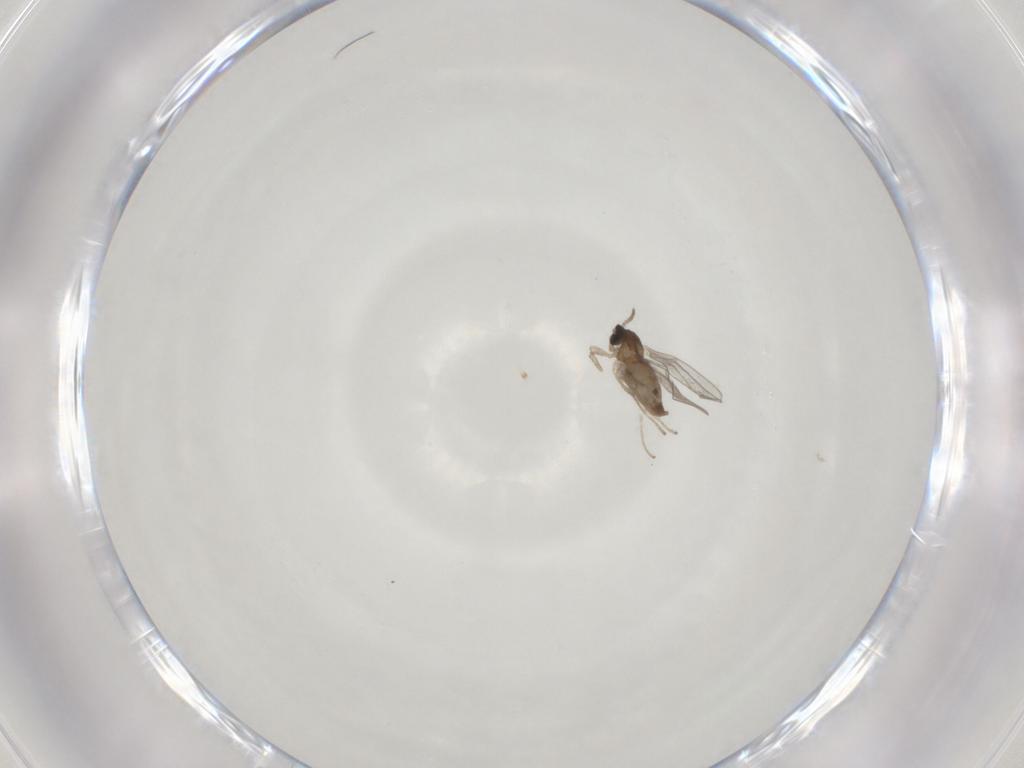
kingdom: Animalia
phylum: Arthropoda
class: Insecta
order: Diptera
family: Cecidomyiidae
